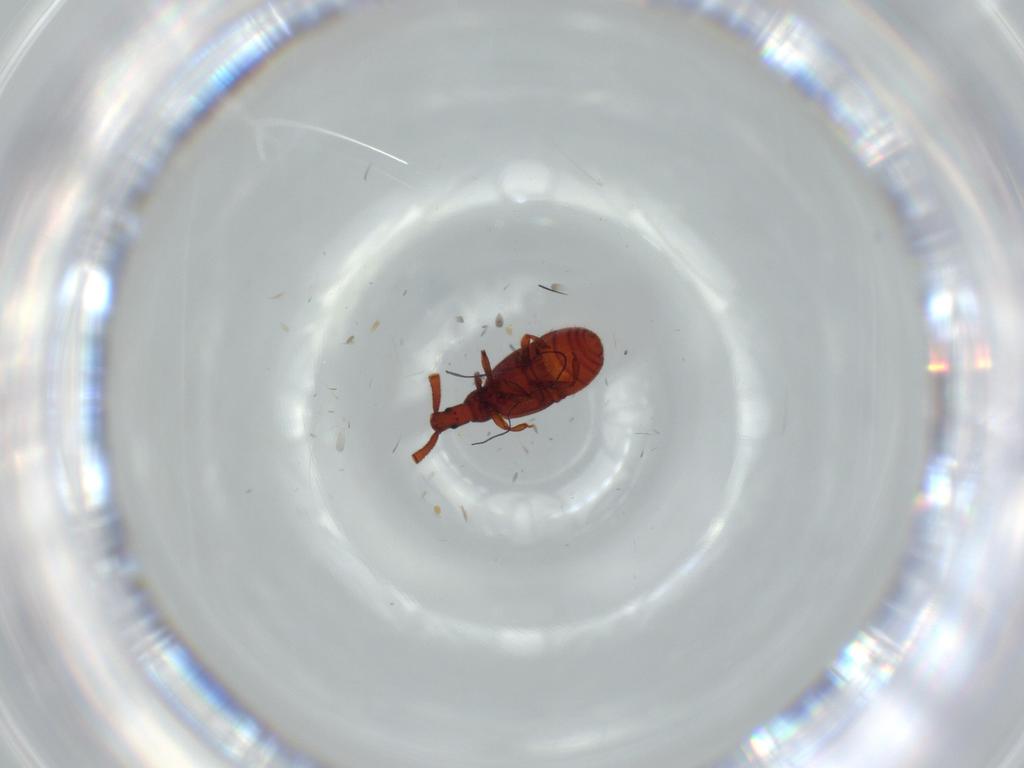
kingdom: Animalia
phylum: Arthropoda
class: Insecta
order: Coleoptera
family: Staphylinidae
